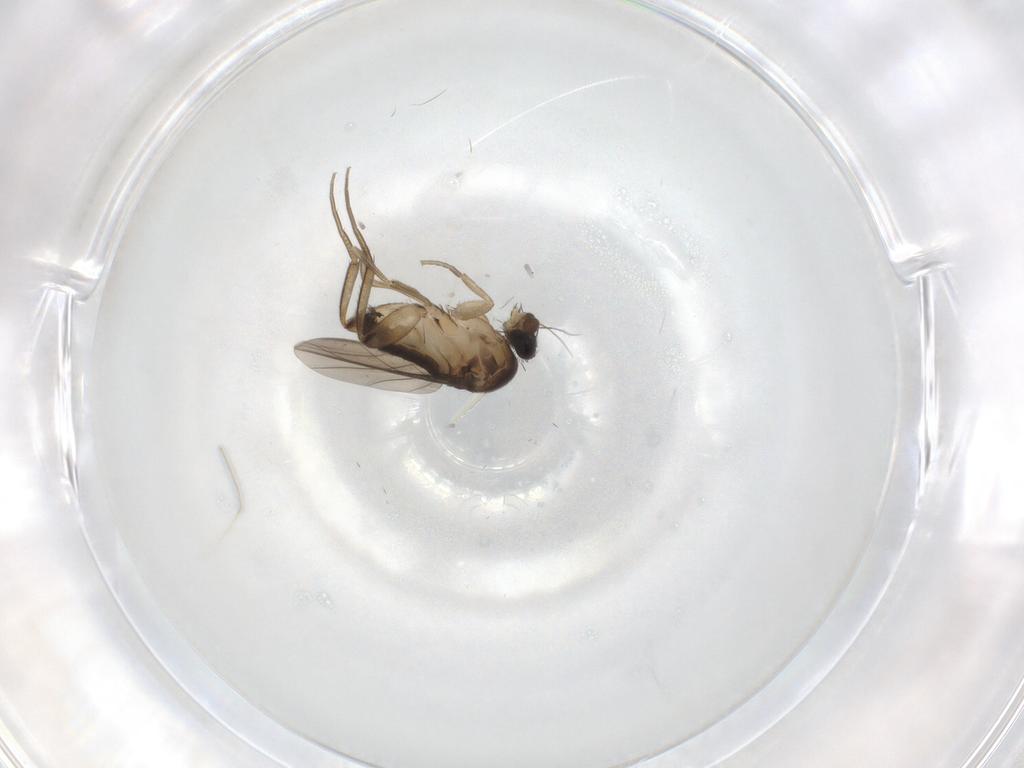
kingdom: Animalia
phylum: Arthropoda
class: Insecta
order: Diptera
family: Phoridae
